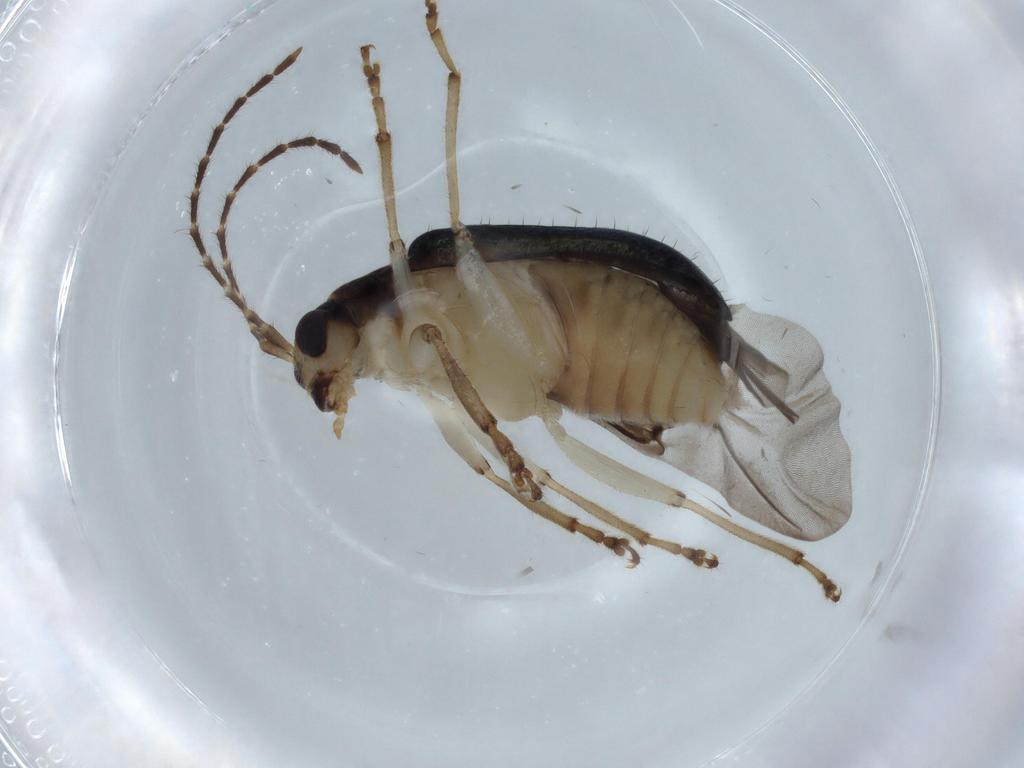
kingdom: Animalia
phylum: Arthropoda
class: Insecta
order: Coleoptera
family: Chrysomelidae
